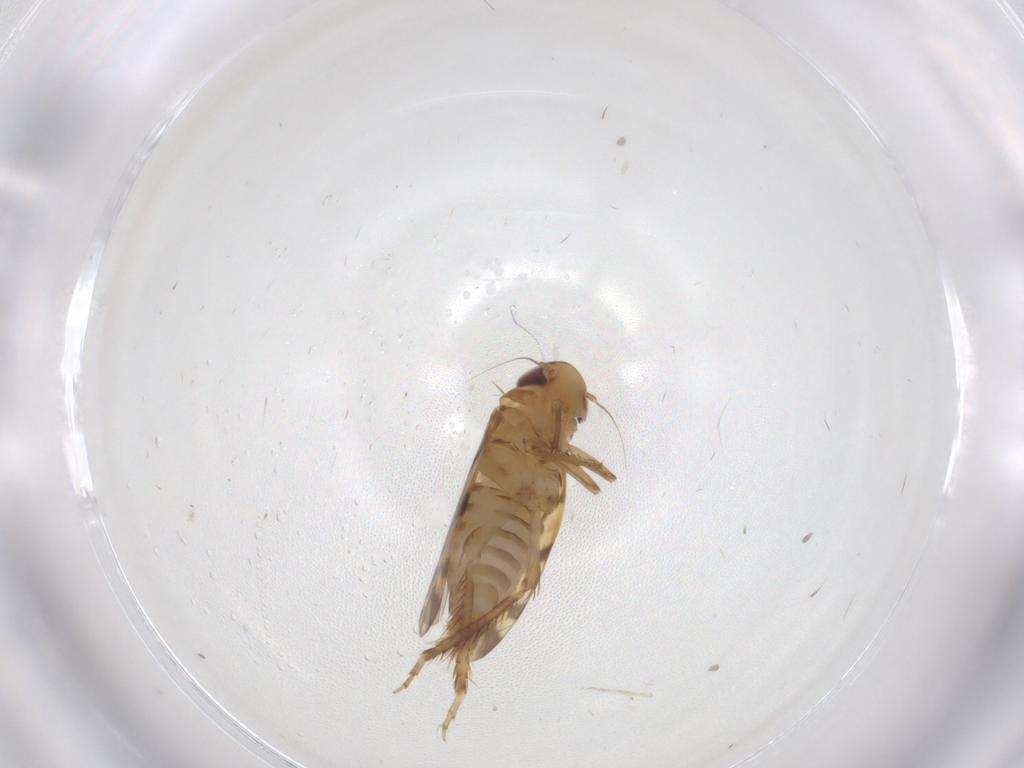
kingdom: Animalia
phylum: Arthropoda
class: Insecta
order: Hemiptera
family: Cicadellidae
